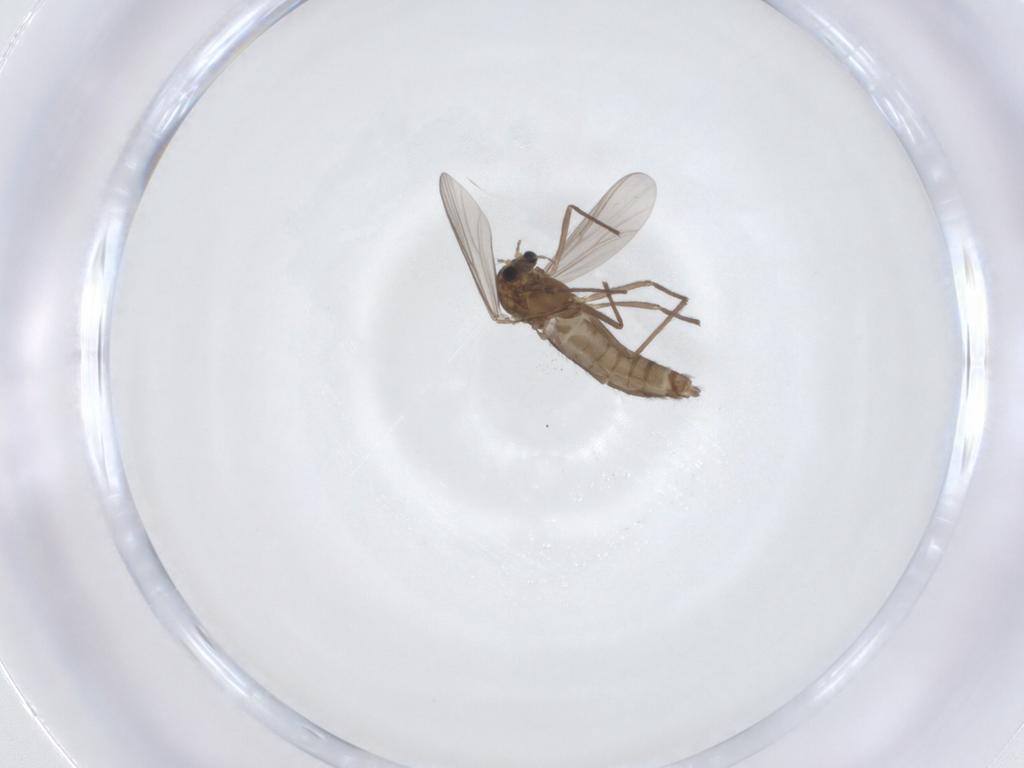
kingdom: Animalia
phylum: Arthropoda
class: Insecta
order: Diptera
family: Chironomidae
